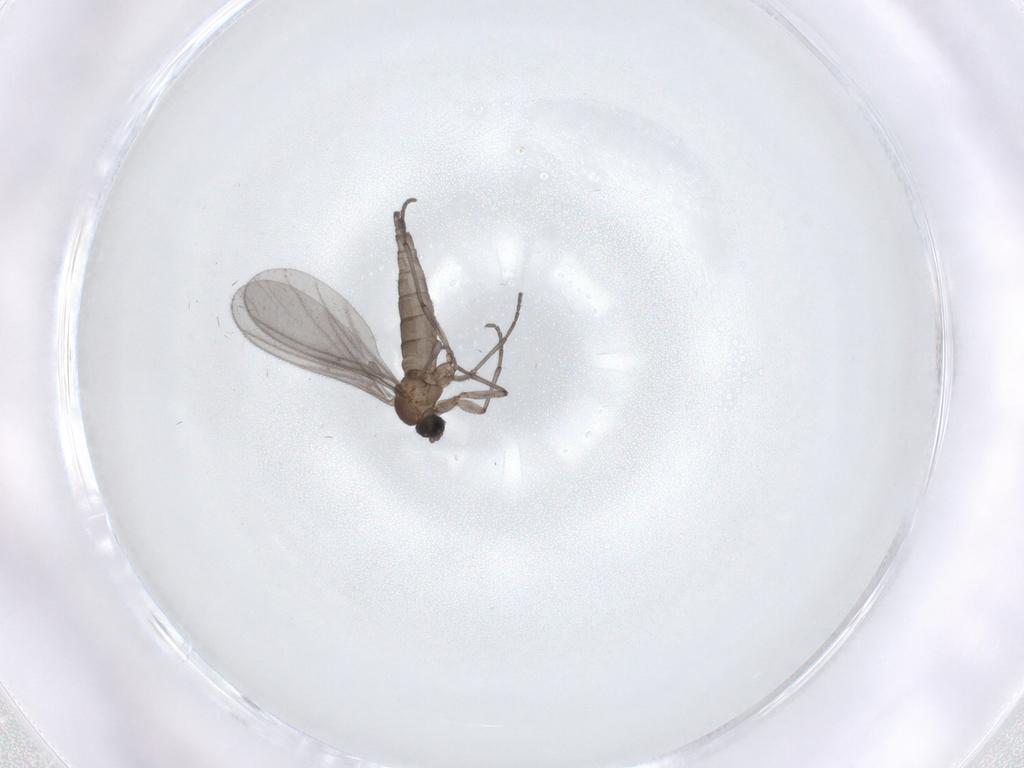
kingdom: Animalia
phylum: Arthropoda
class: Insecta
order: Diptera
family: Sciaridae
